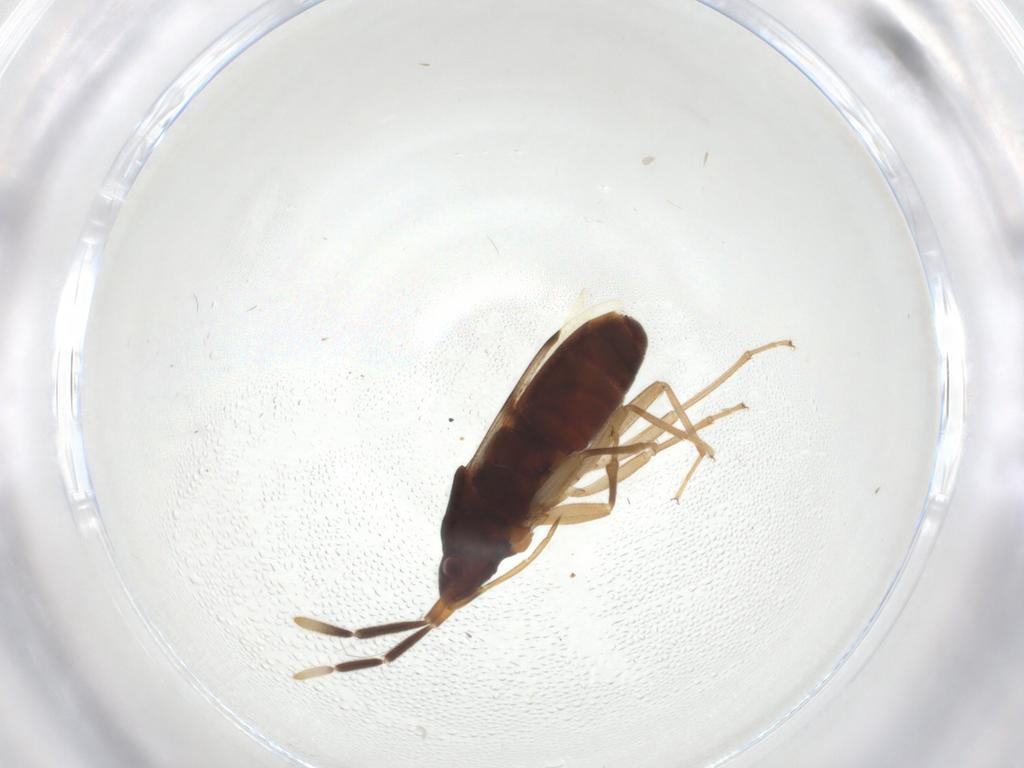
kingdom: Animalia
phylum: Arthropoda
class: Insecta
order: Hemiptera
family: Rhyparochromidae
